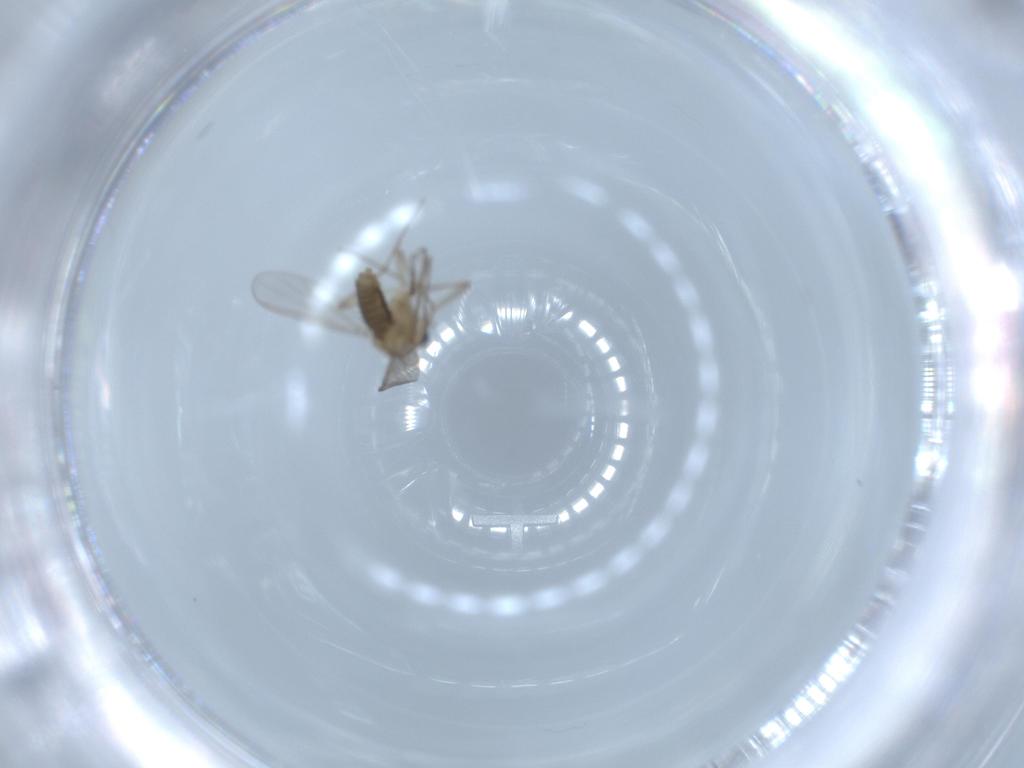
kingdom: Animalia
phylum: Arthropoda
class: Insecta
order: Diptera
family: Chironomidae
